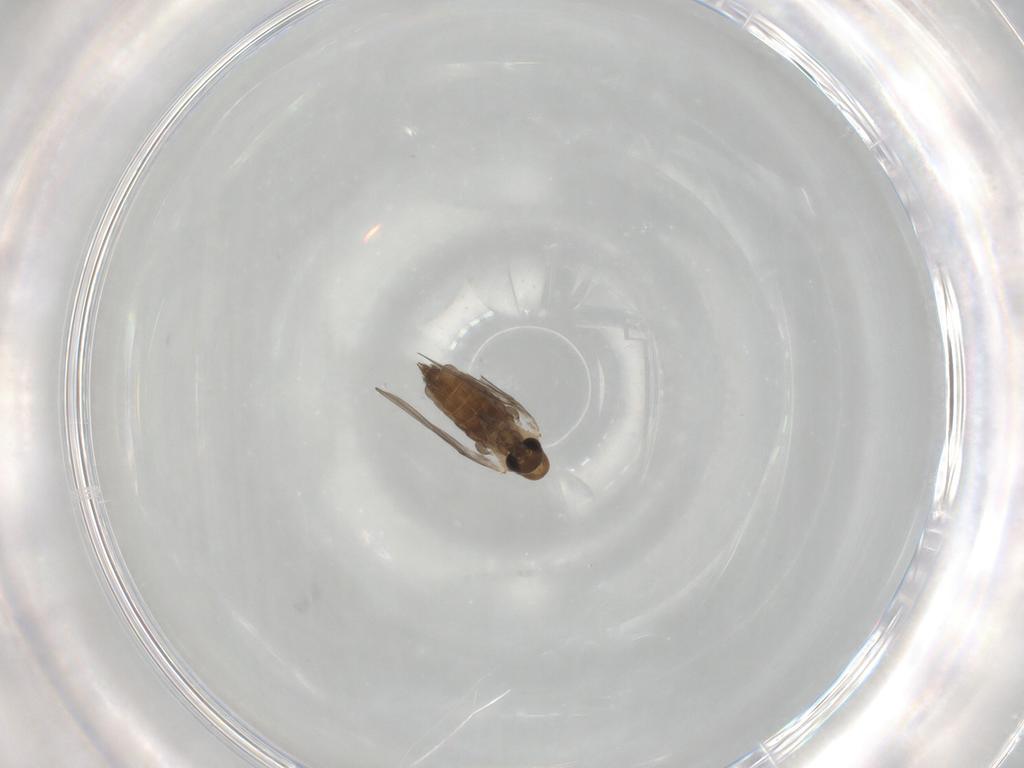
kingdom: Animalia
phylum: Arthropoda
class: Insecta
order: Diptera
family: Psychodidae
